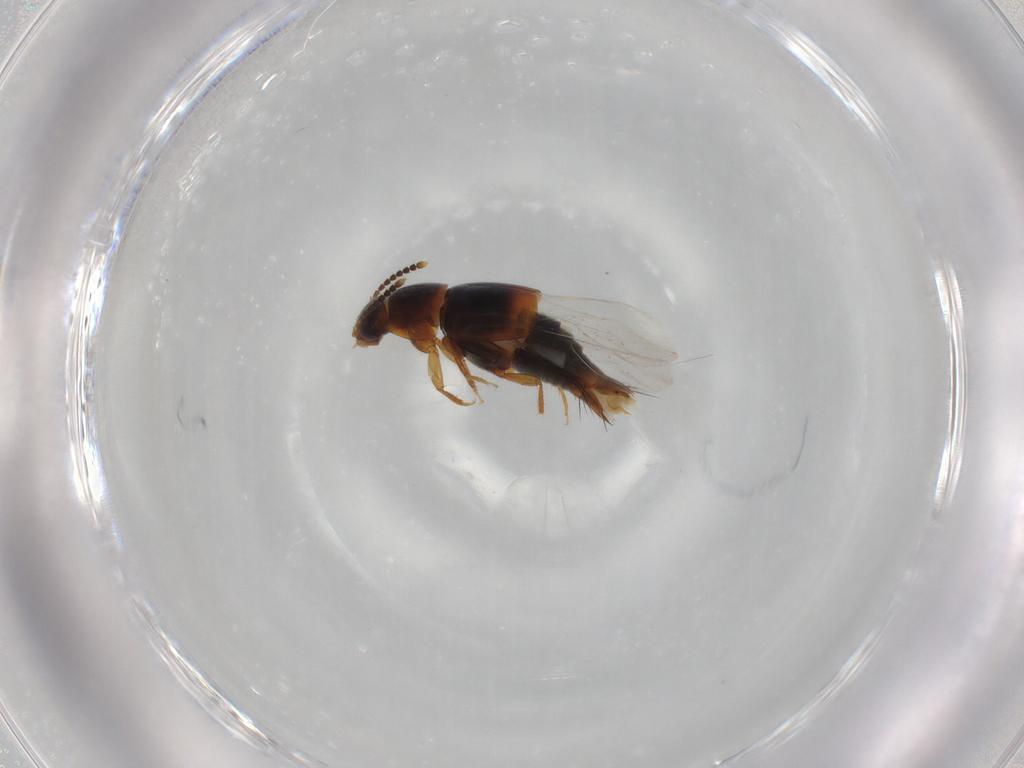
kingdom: Animalia
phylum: Arthropoda
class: Insecta
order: Coleoptera
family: Staphylinidae
